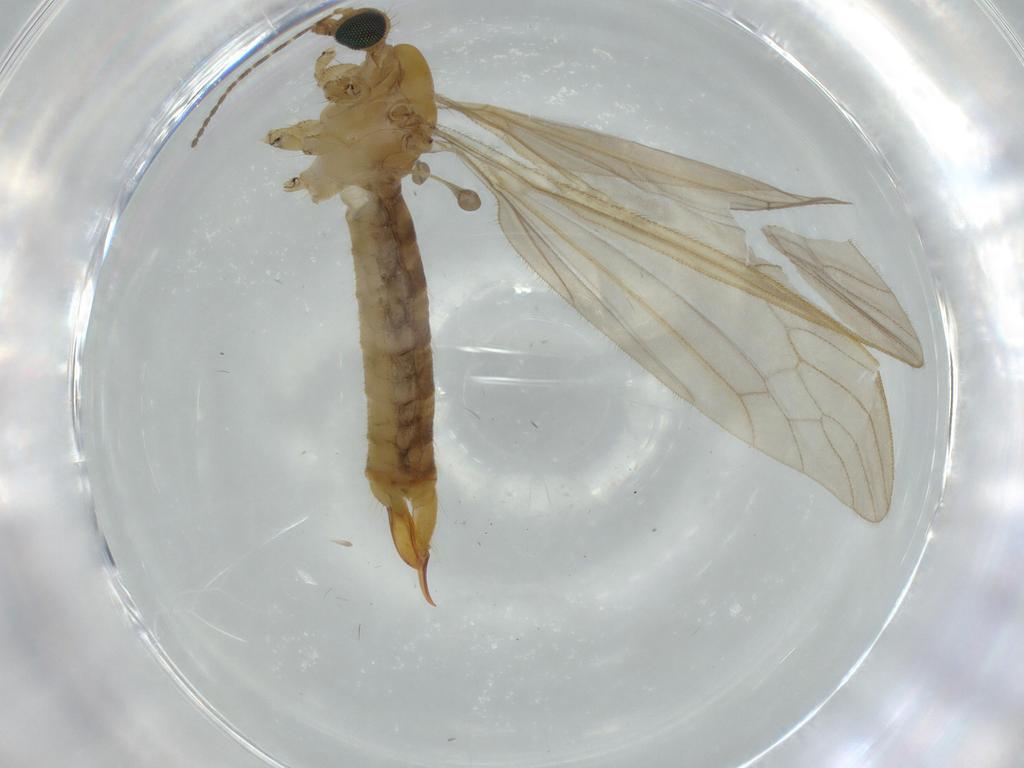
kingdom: Animalia
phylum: Arthropoda
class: Insecta
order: Diptera
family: Limoniidae
